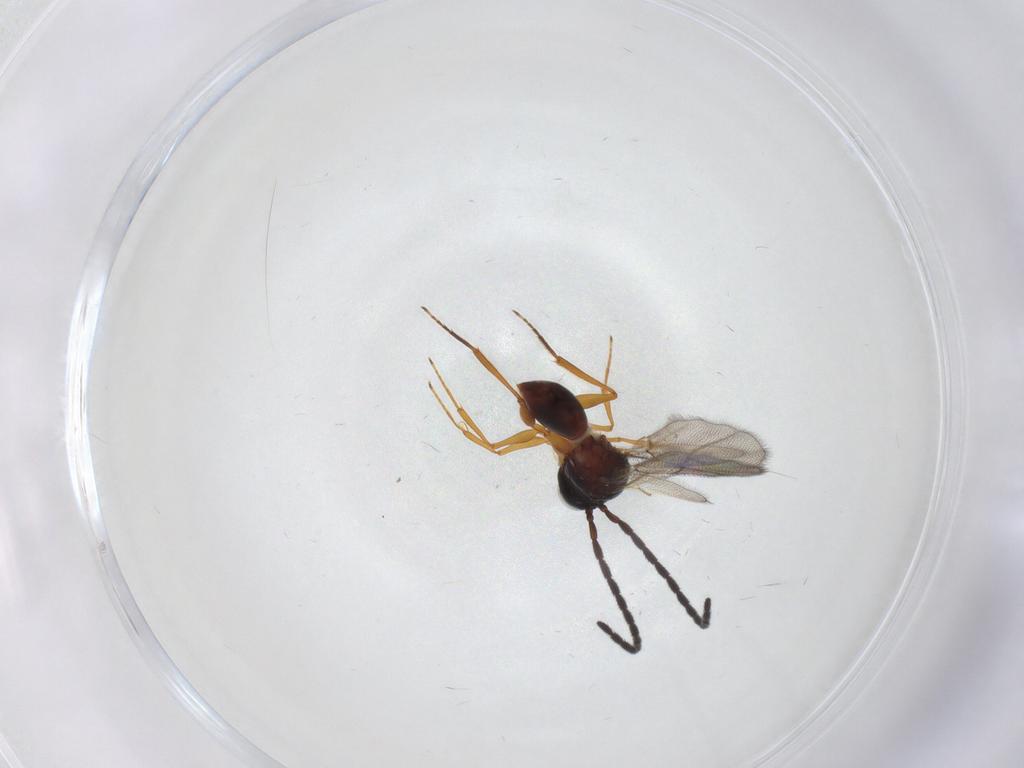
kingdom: Animalia
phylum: Arthropoda
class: Insecta
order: Hymenoptera
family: Figitidae
